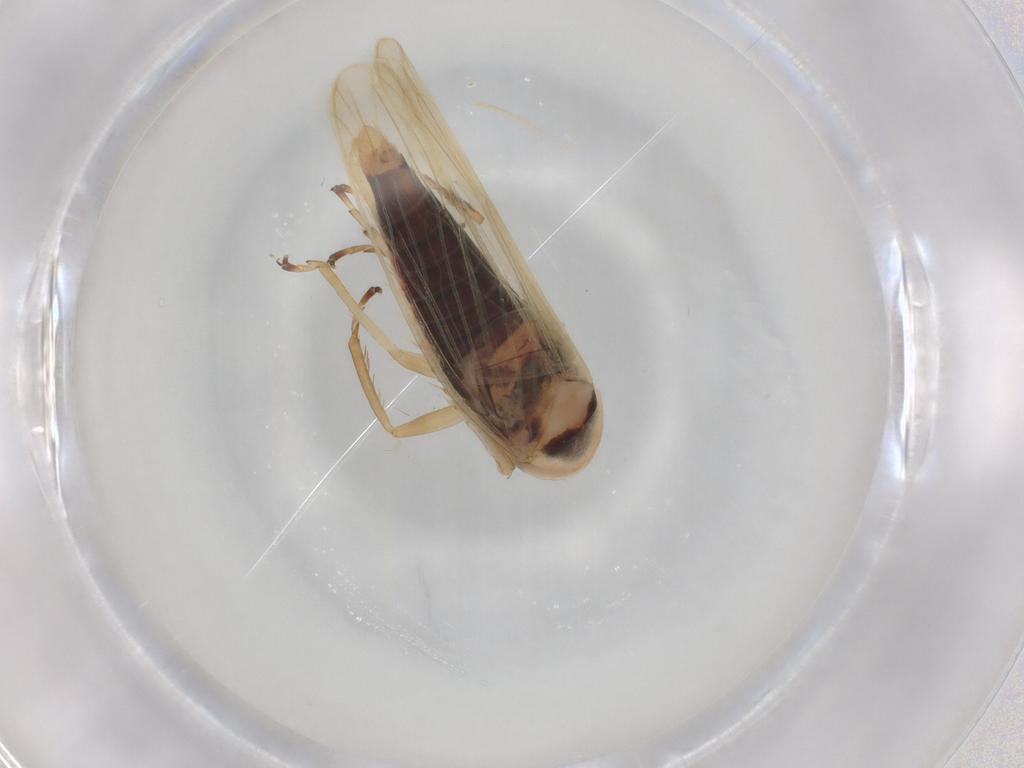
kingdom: Animalia
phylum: Arthropoda
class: Insecta
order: Hemiptera
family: Cicadellidae
